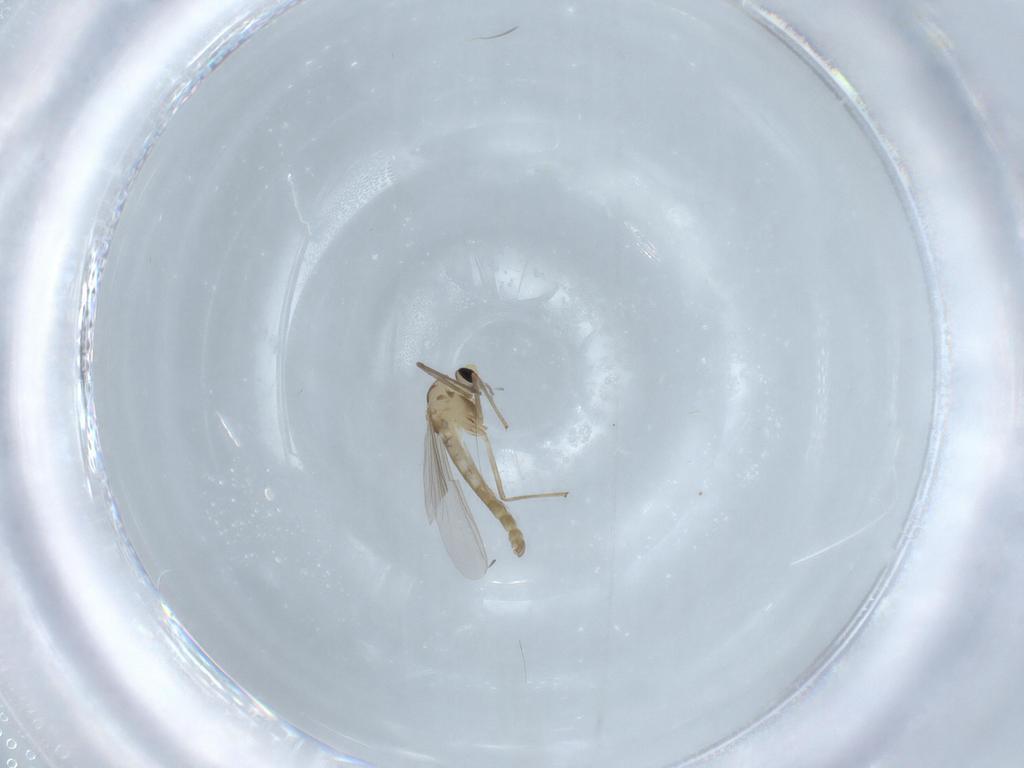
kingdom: Animalia
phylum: Arthropoda
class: Insecta
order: Diptera
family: Chironomidae
